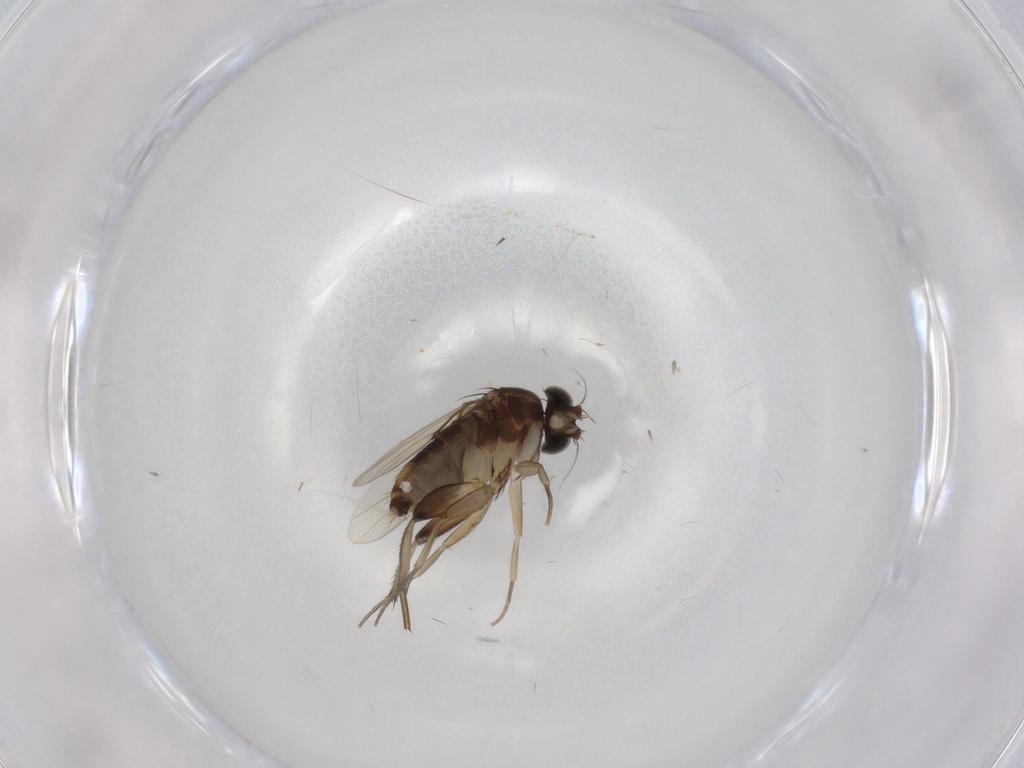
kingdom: Animalia
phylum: Arthropoda
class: Insecta
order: Diptera
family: Phoridae
